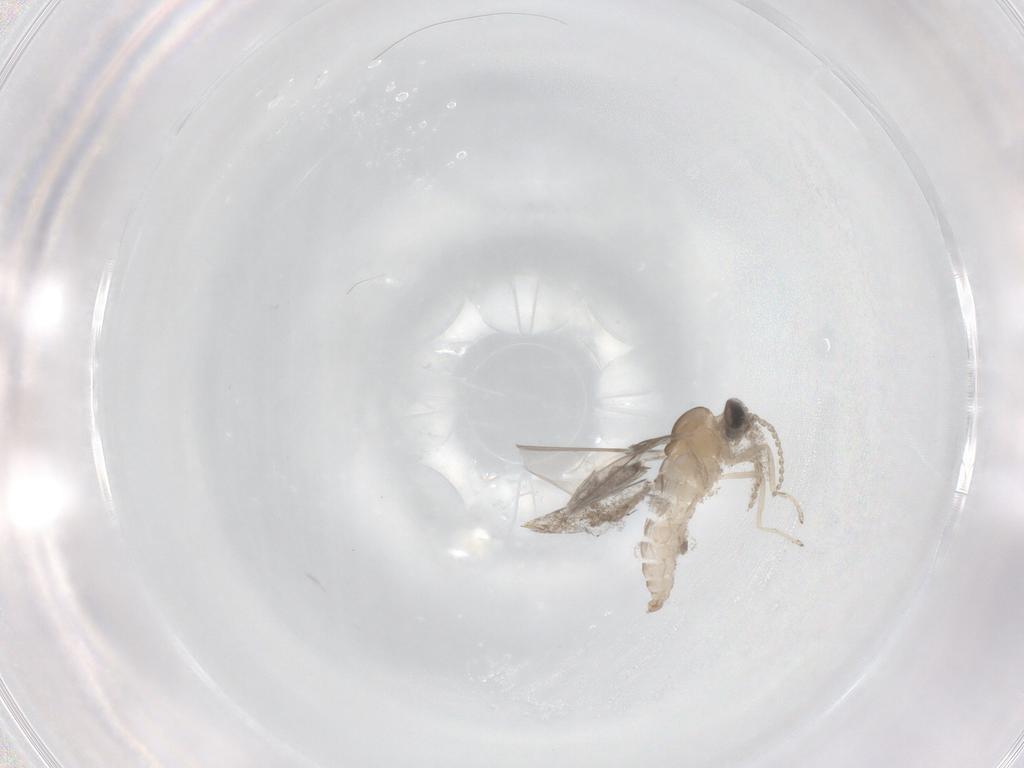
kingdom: Animalia
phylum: Arthropoda
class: Insecta
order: Diptera
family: Cecidomyiidae
